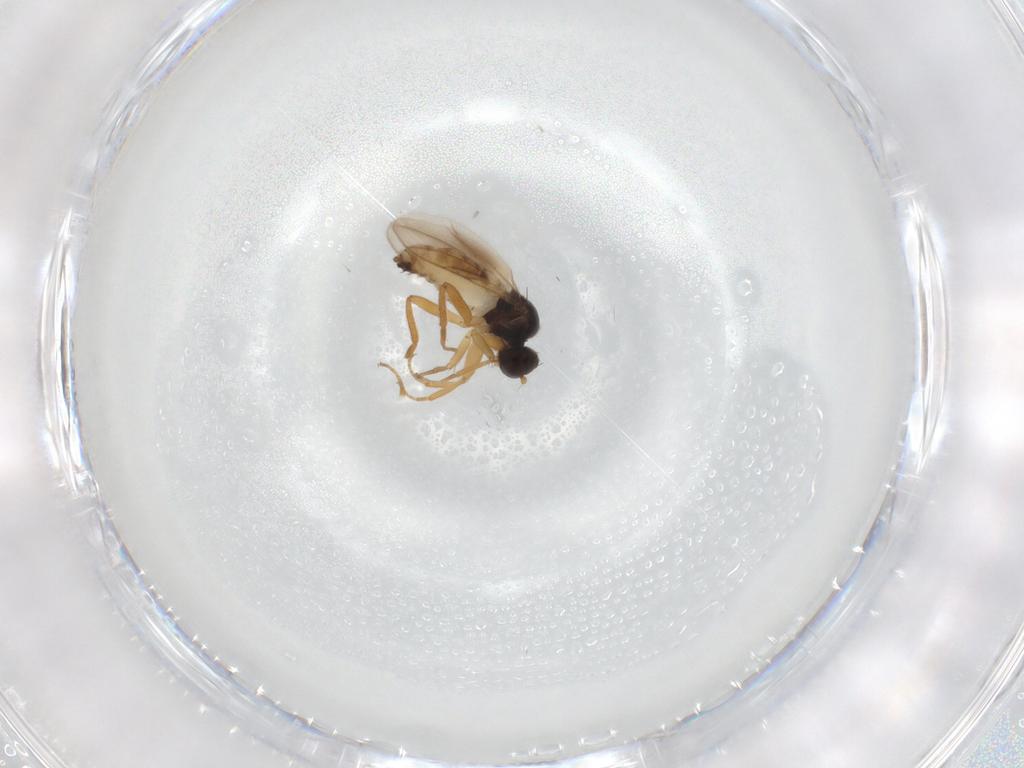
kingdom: Animalia
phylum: Arthropoda
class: Insecta
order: Diptera
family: Hybotidae
